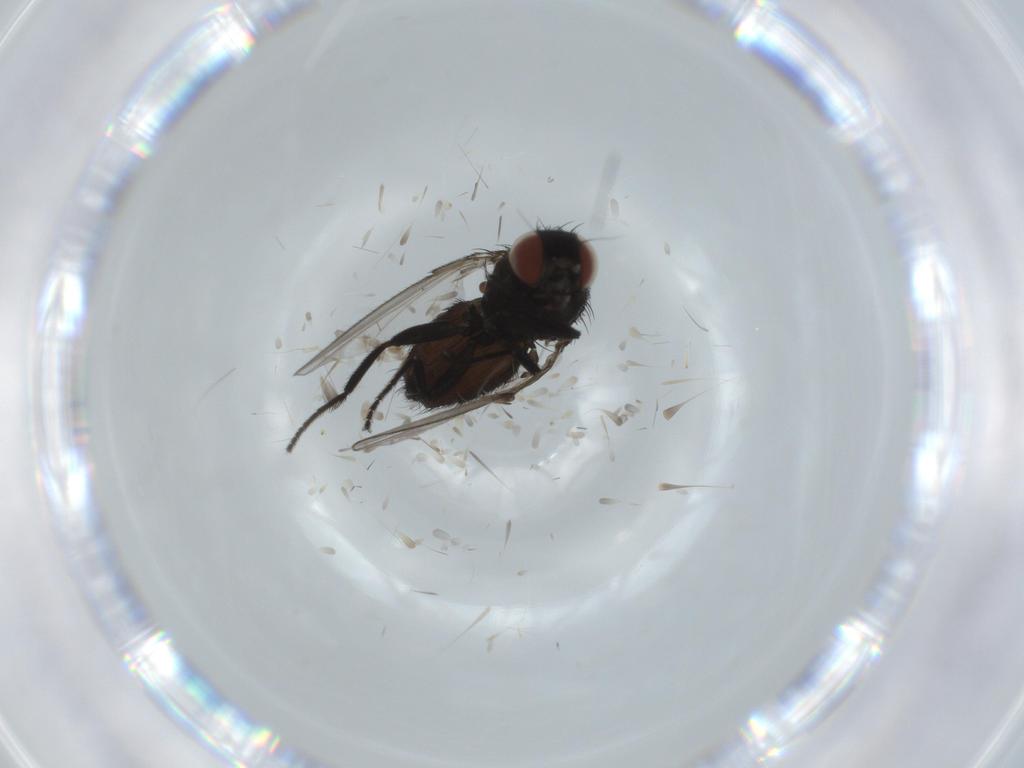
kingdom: Animalia
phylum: Arthropoda
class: Insecta
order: Diptera
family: Milichiidae
